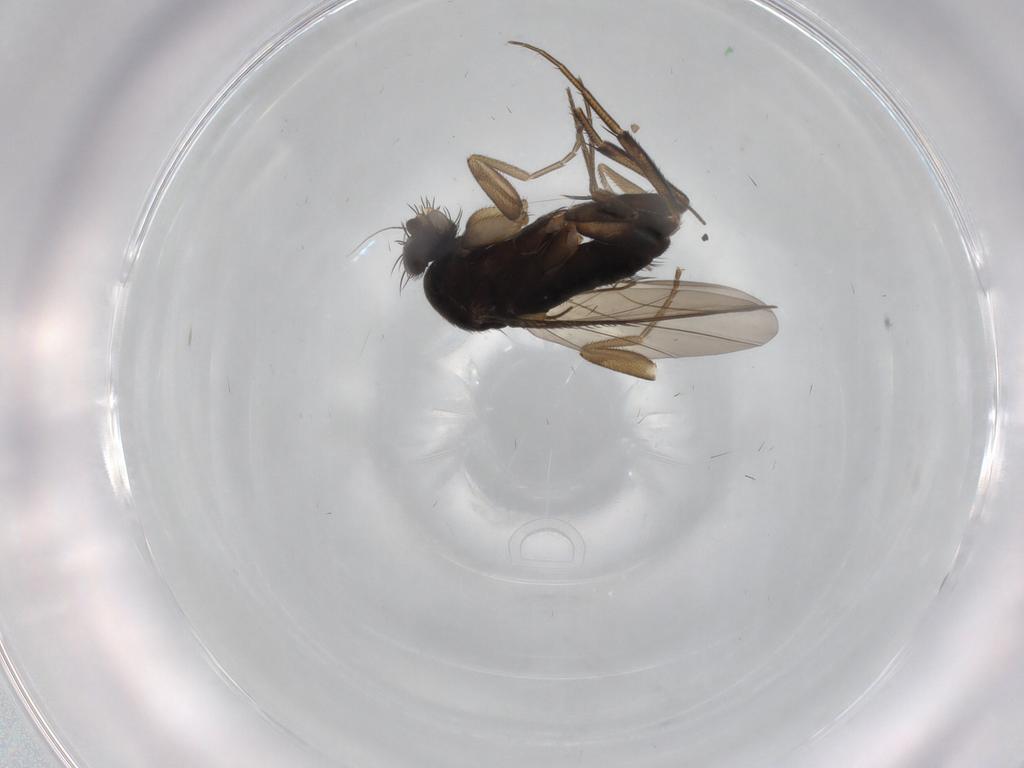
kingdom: Animalia
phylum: Arthropoda
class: Insecta
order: Diptera
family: Phoridae
